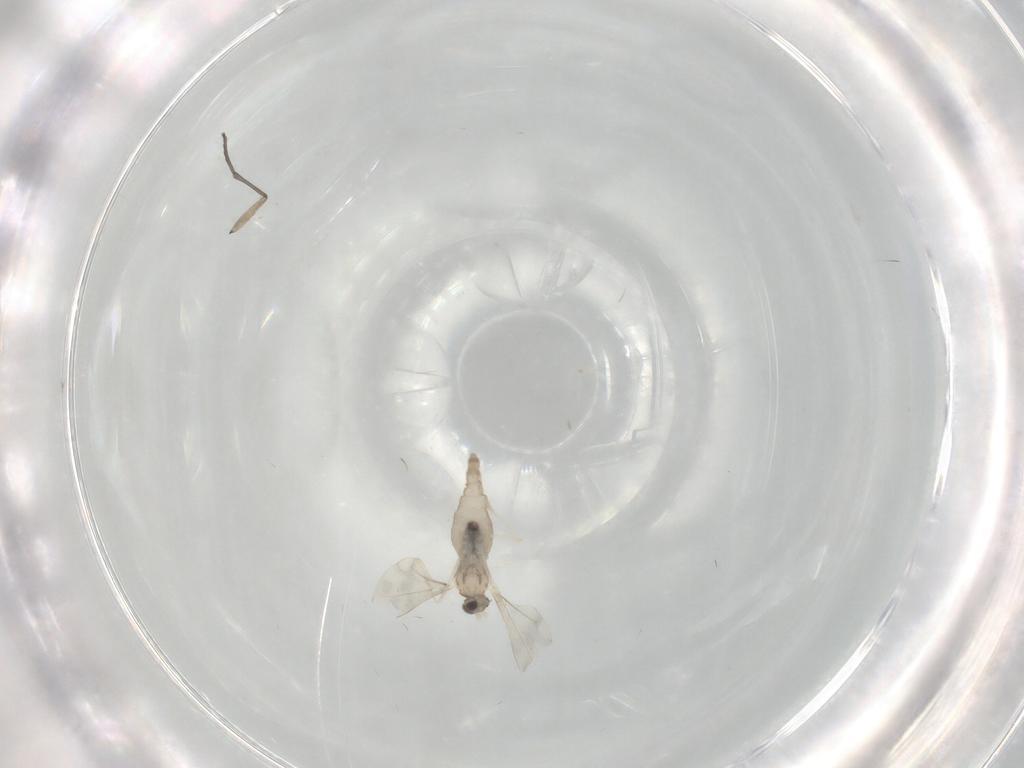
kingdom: Animalia
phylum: Arthropoda
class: Insecta
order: Diptera
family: Cecidomyiidae
